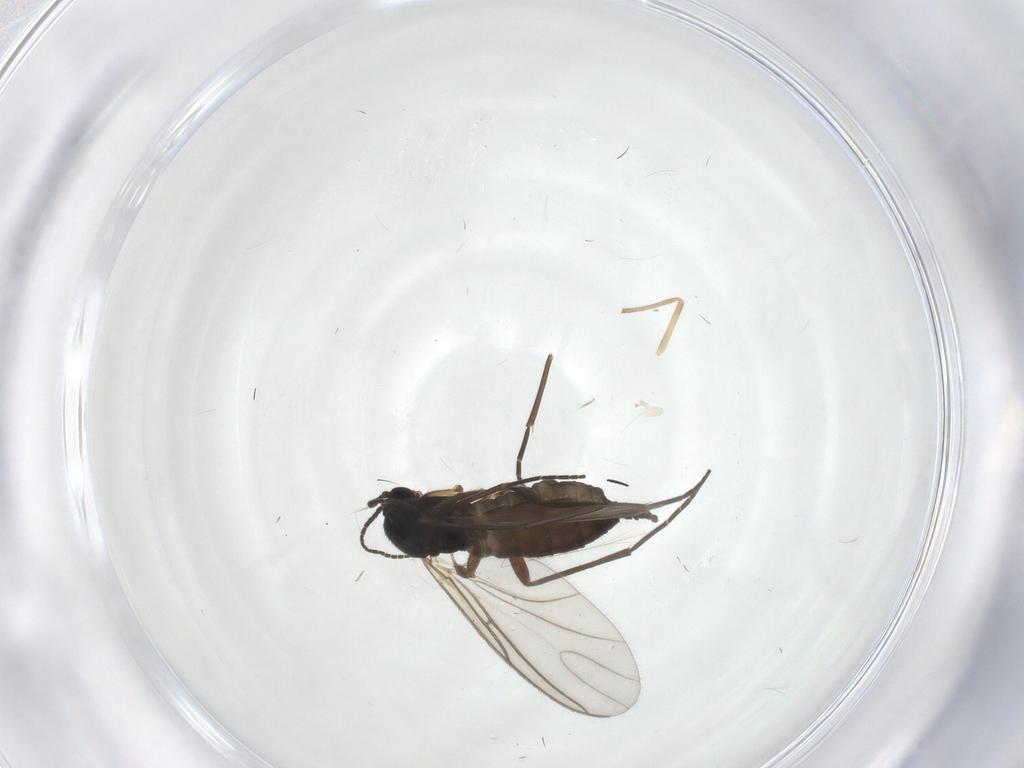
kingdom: Animalia
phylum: Arthropoda
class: Insecta
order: Diptera
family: Sciaridae
